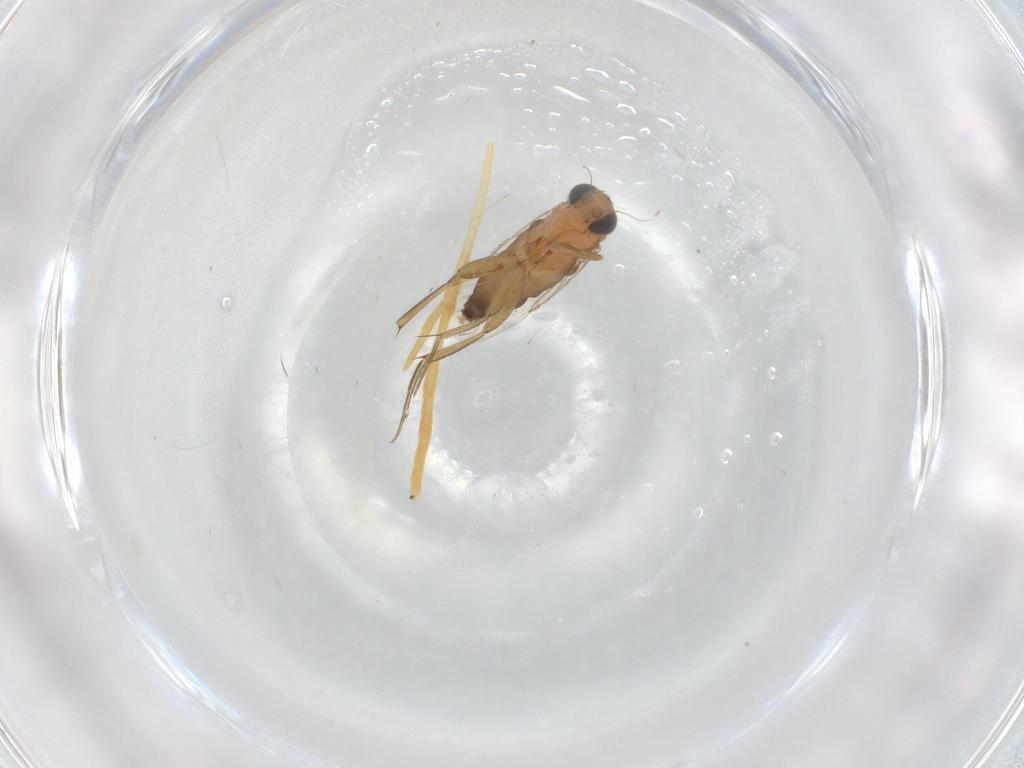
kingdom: Animalia
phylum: Arthropoda
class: Insecta
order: Diptera
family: Phoridae
